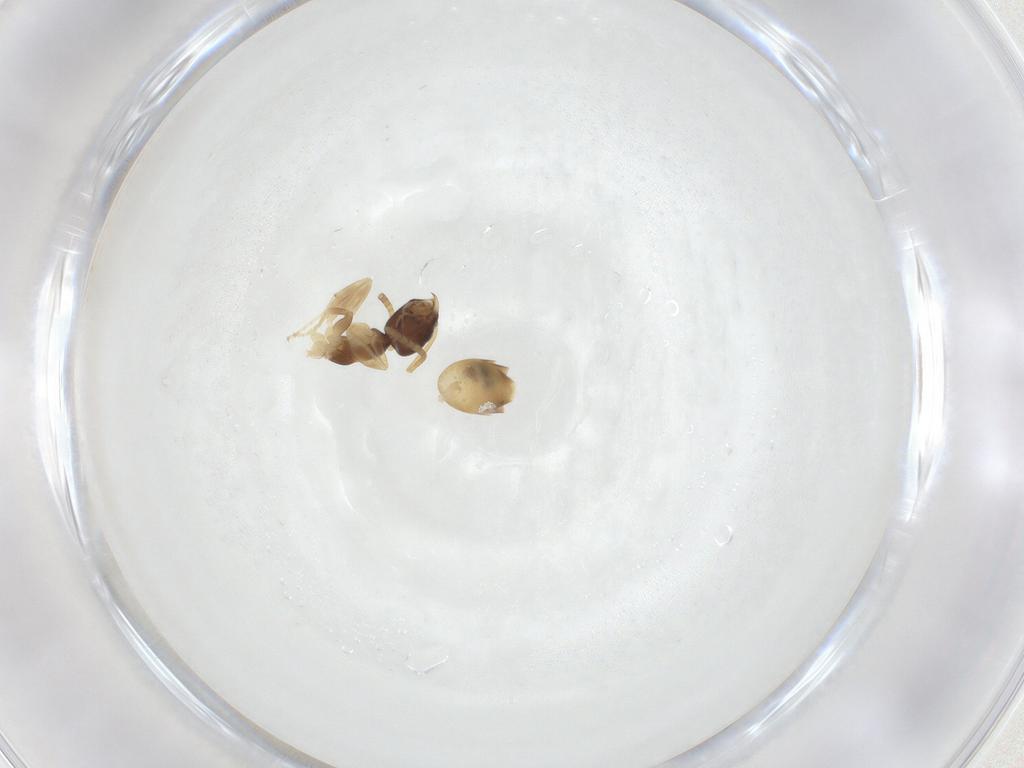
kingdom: Animalia
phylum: Arthropoda
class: Insecta
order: Hymenoptera
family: Formicidae
